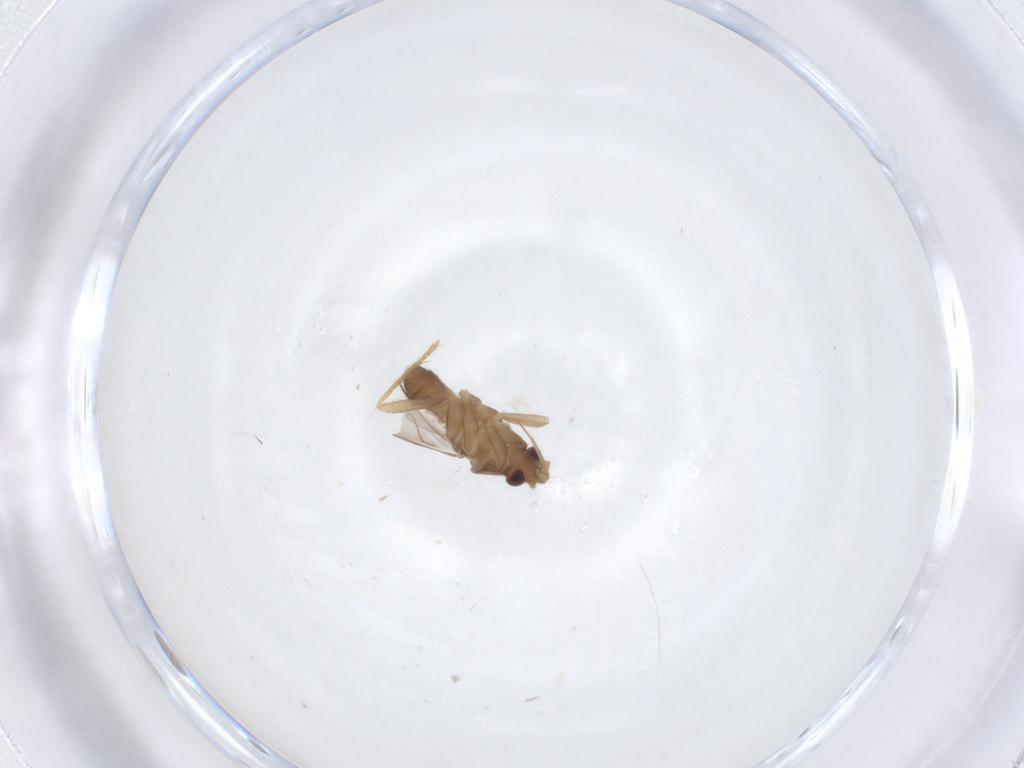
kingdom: Animalia
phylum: Arthropoda
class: Insecta
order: Hemiptera
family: Ceratocombidae
